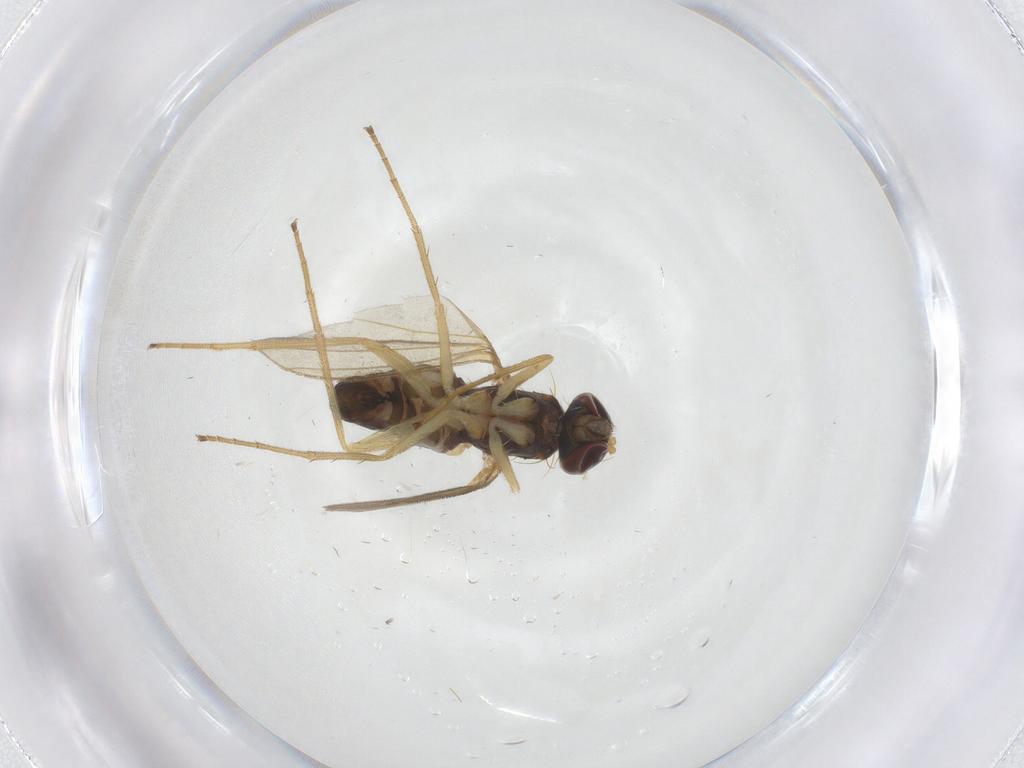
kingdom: Animalia
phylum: Arthropoda
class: Insecta
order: Diptera
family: Dolichopodidae
